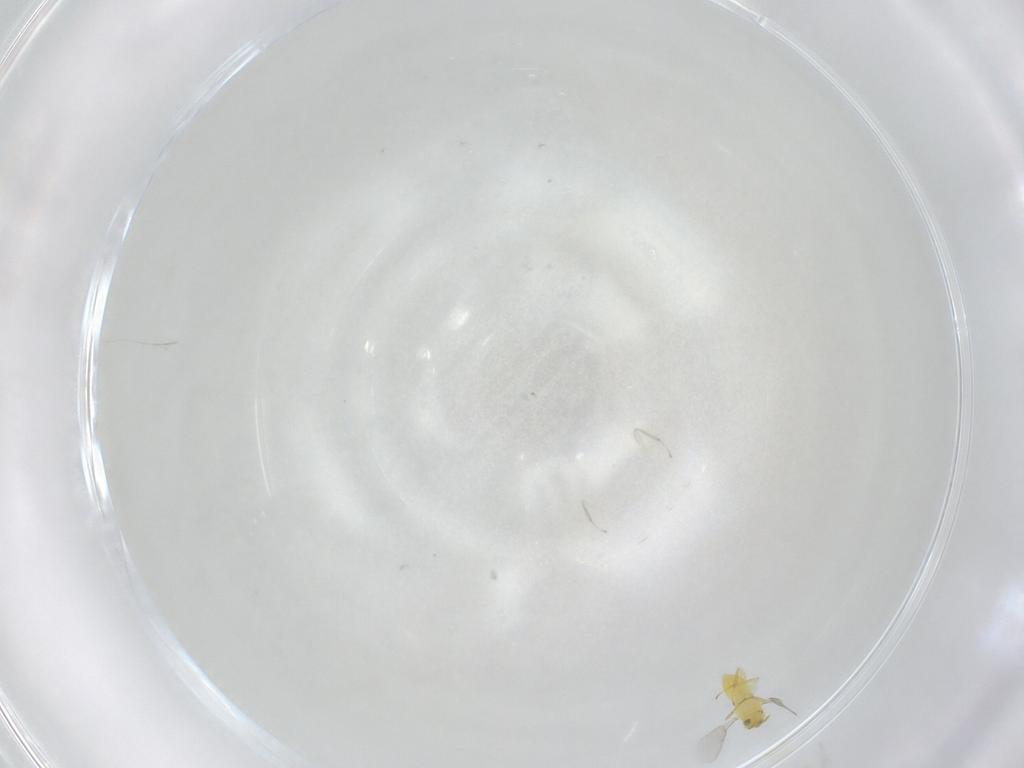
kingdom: Animalia
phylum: Arthropoda
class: Insecta
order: Hymenoptera
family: Aphelinidae
